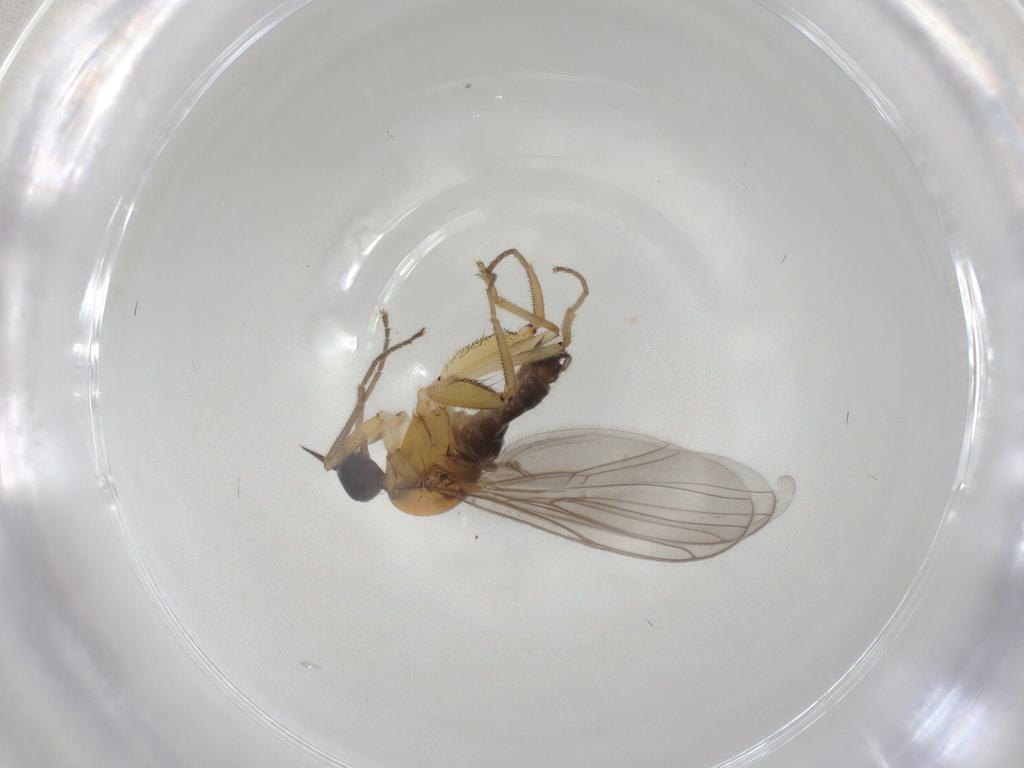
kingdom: Animalia
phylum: Arthropoda
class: Insecta
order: Diptera
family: Hybotidae
